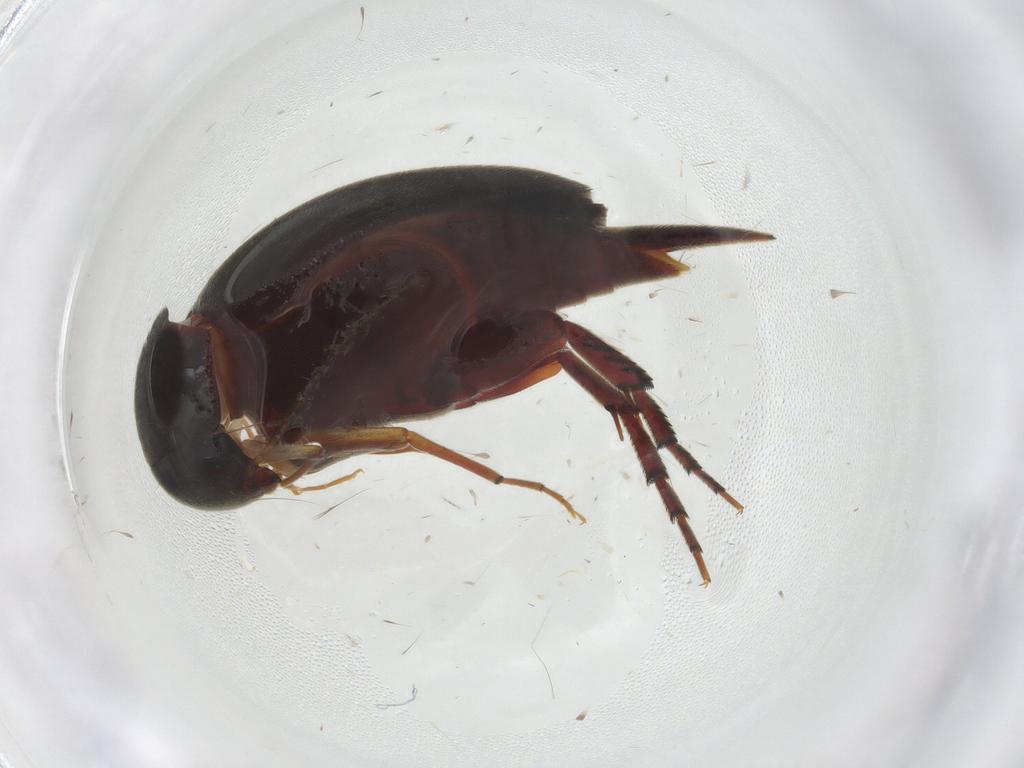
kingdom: Animalia
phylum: Arthropoda
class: Insecta
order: Coleoptera
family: Mordellidae
